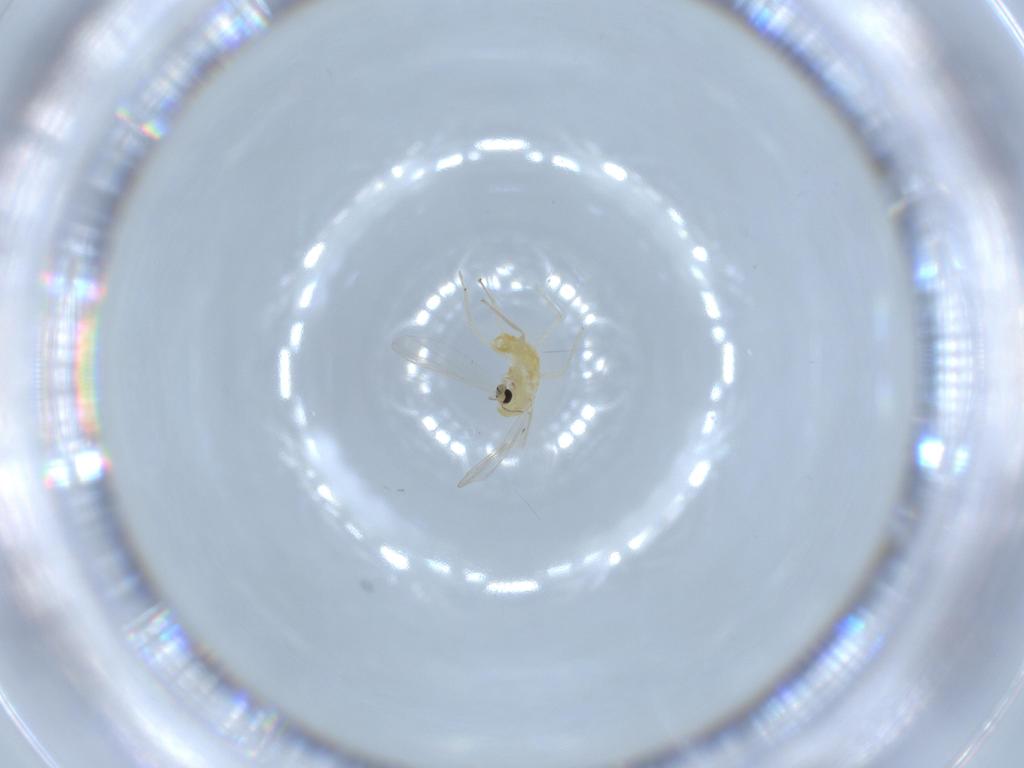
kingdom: Animalia
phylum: Arthropoda
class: Insecta
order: Diptera
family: Chironomidae
